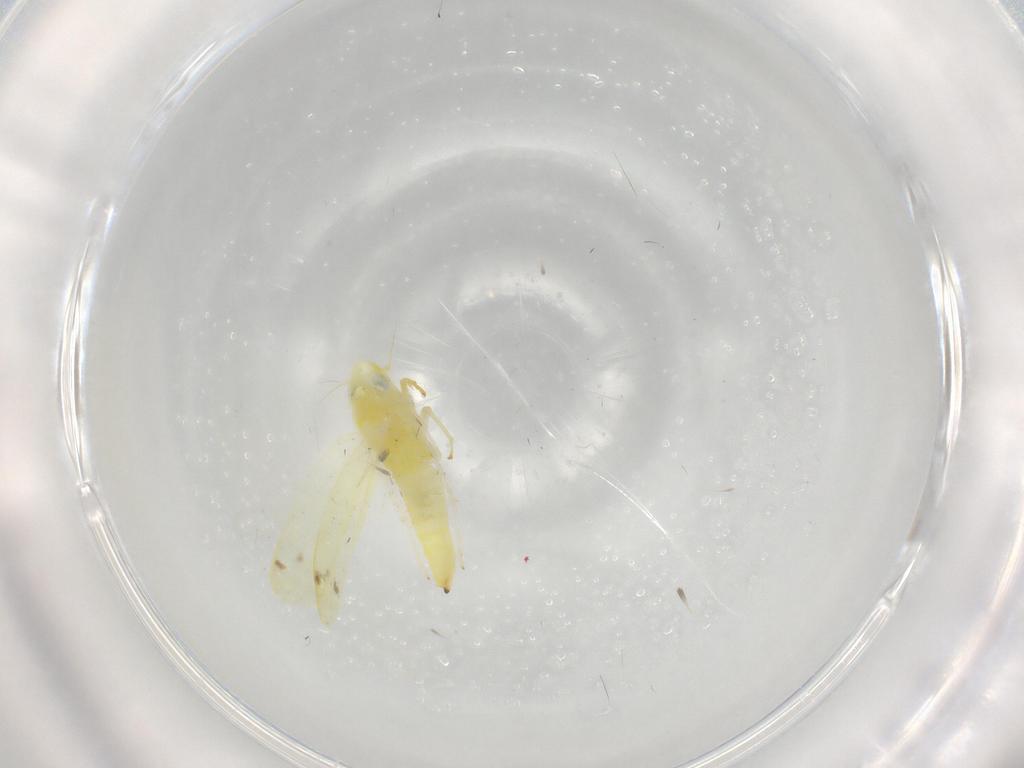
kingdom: Animalia
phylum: Arthropoda
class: Insecta
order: Hemiptera
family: Cicadellidae
